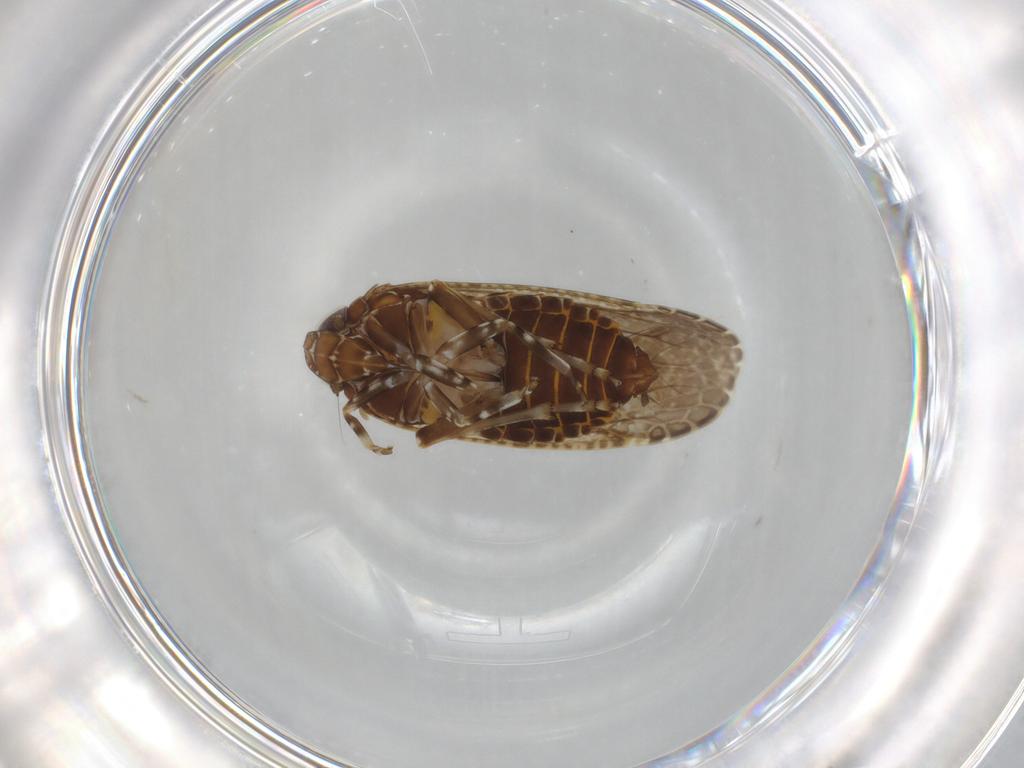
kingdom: Animalia
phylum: Arthropoda
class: Insecta
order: Hemiptera
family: Achilidae
